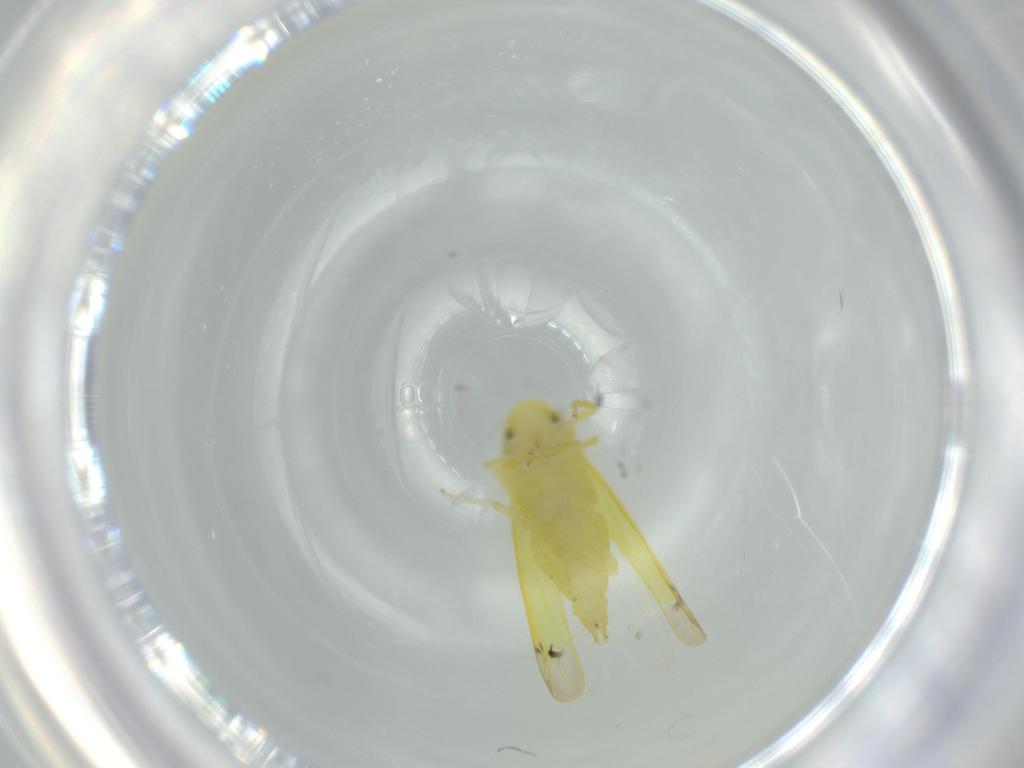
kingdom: Animalia
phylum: Arthropoda
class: Insecta
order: Hemiptera
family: Cicadellidae
